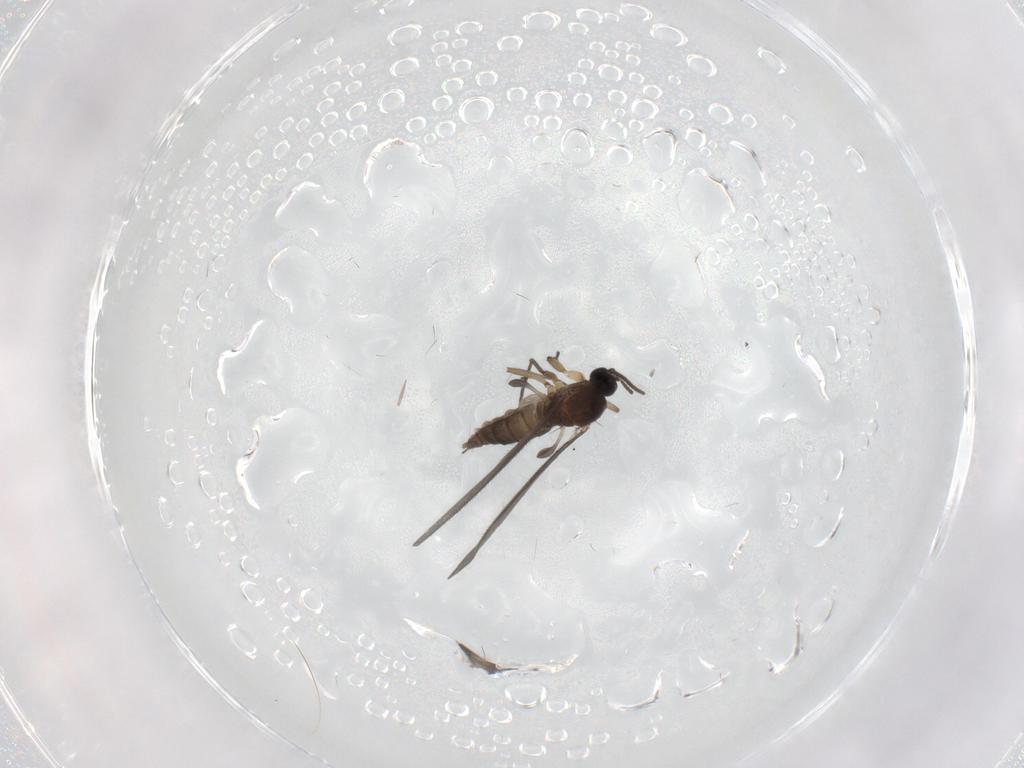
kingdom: Animalia
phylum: Arthropoda
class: Insecta
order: Diptera
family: Sciaridae
